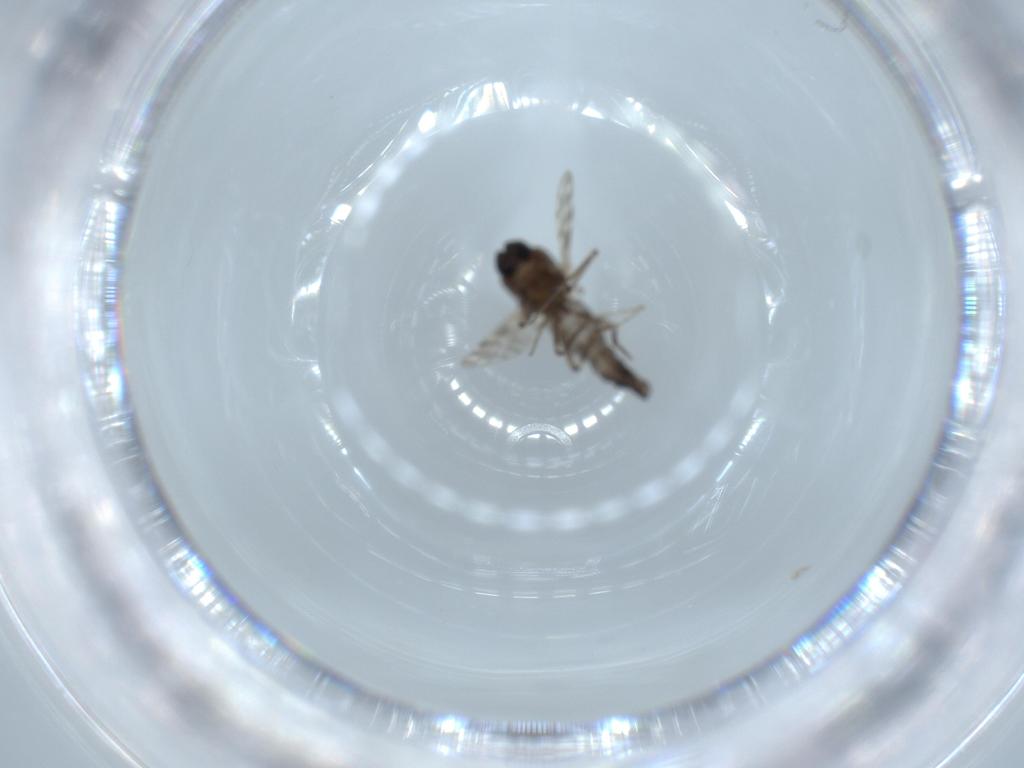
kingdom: Animalia
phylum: Arthropoda
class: Insecta
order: Diptera
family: Ceratopogonidae
